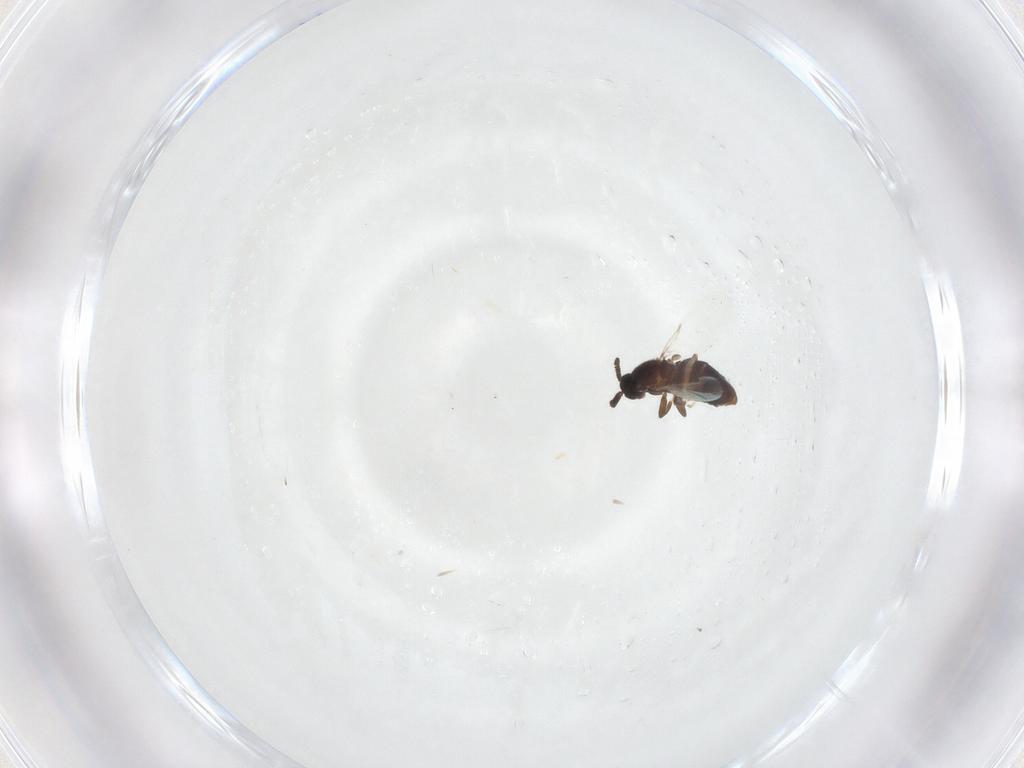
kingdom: Animalia
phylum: Arthropoda
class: Insecta
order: Diptera
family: Scatopsidae
